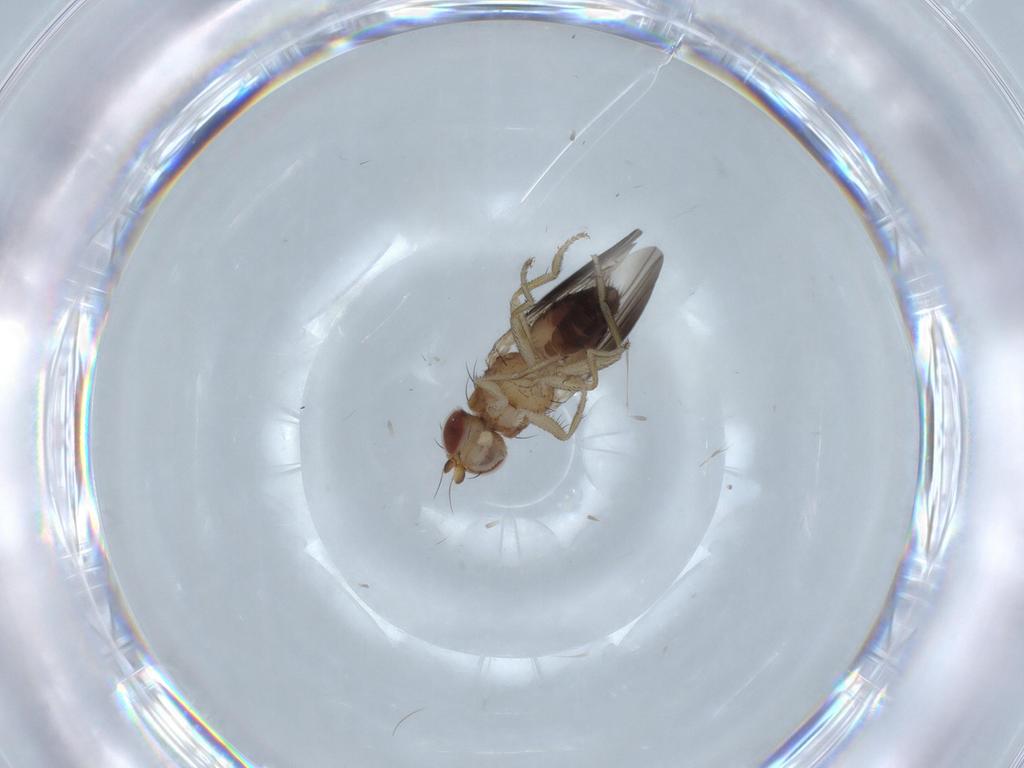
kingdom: Animalia
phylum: Arthropoda
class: Insecta
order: Diptera
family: Heleomyzidae
